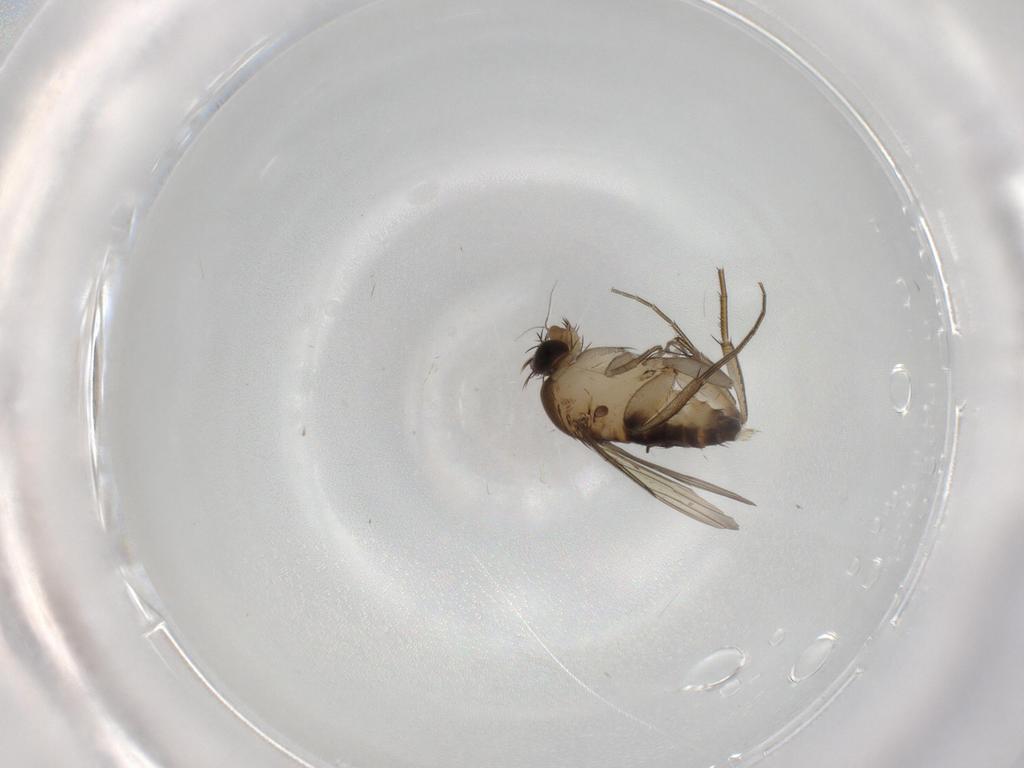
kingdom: Animalia
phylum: Arthropoda
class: Insecta
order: Diptera
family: Phoridae
